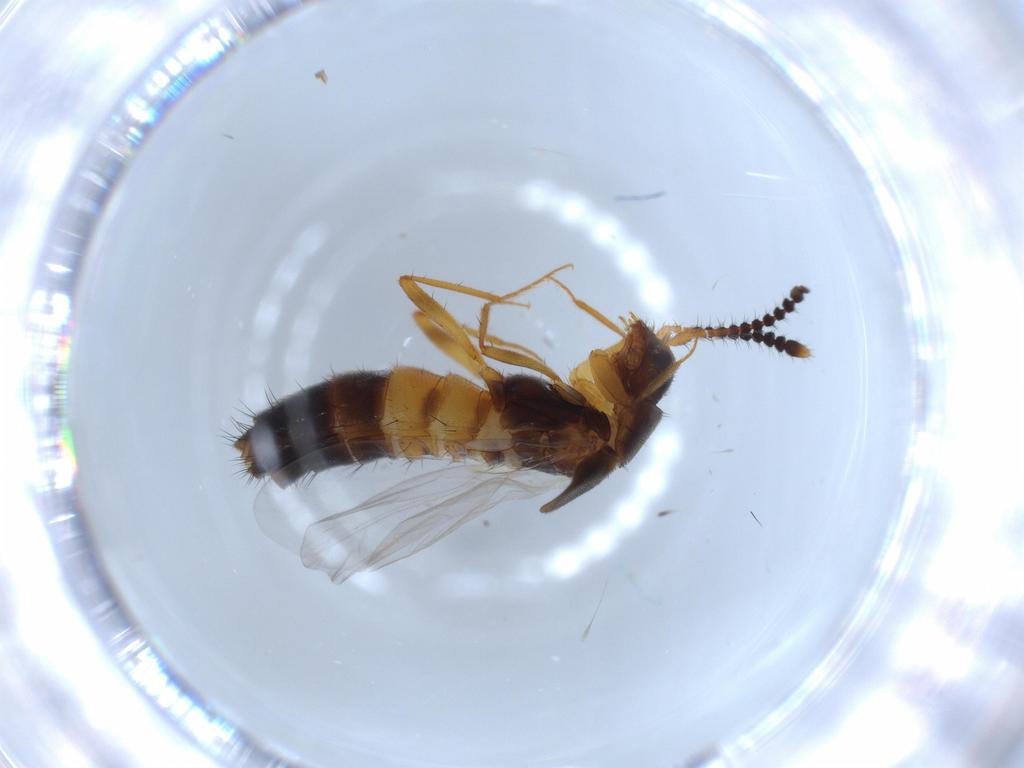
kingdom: Animalia
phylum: Arthropoda
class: Insecta
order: Coleoptera
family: Staphylinidae
